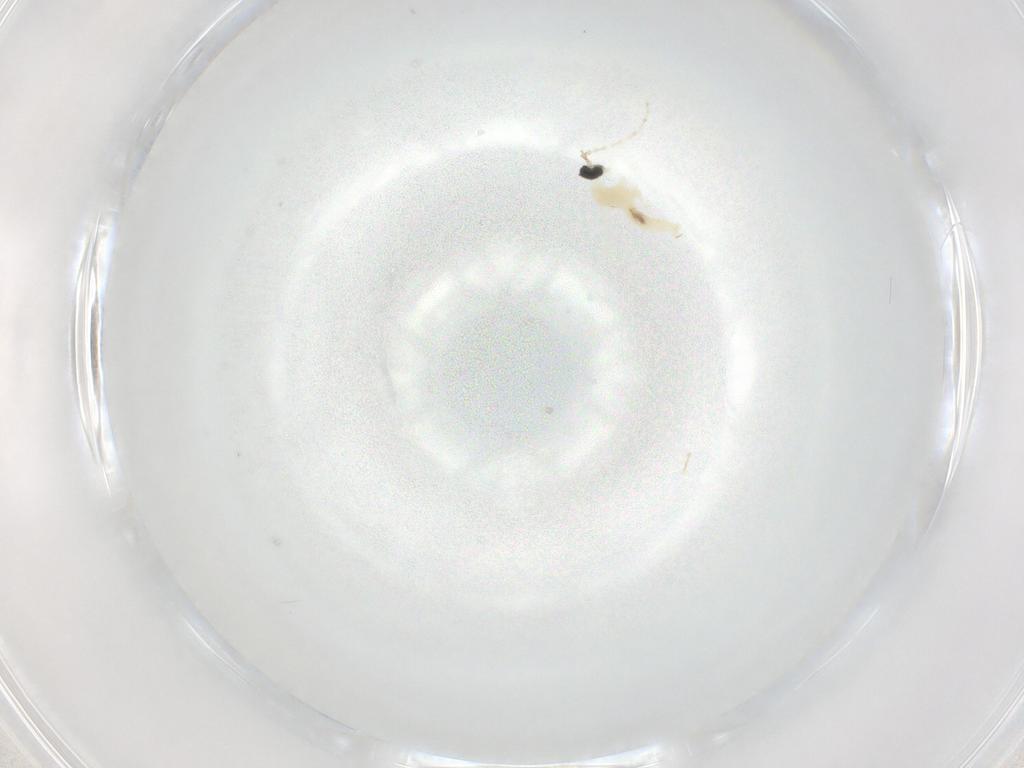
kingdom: Animalia
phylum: Arthropoda
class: Insecta
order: Diptera
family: Cecidomyiidae
